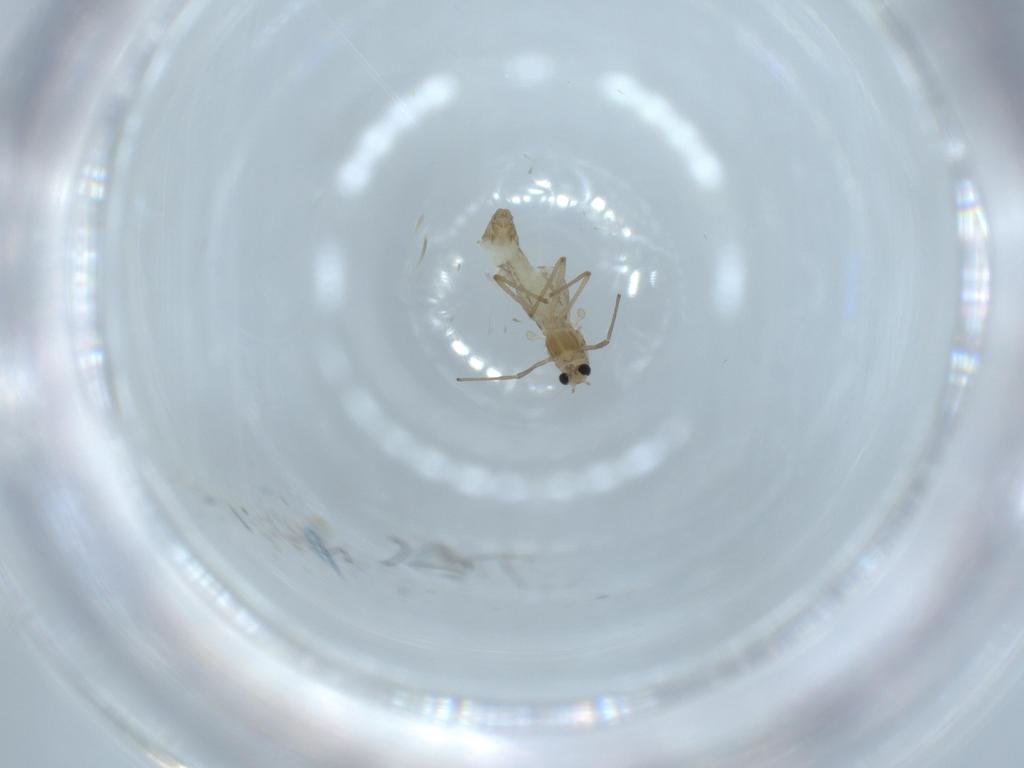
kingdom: Animalia
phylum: Arthropoda
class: Insecta
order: Diptera
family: Chironomidae
